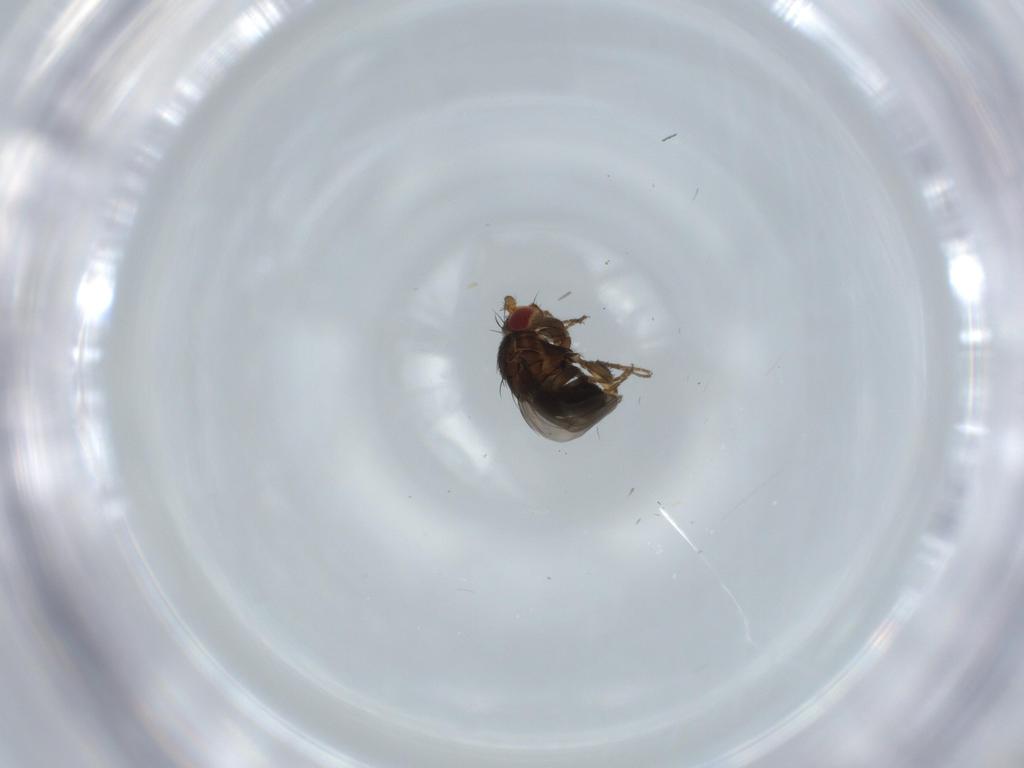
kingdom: Animalia
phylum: Arthropoda
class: Insecta
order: Diptera
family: Sphaeroceridae
